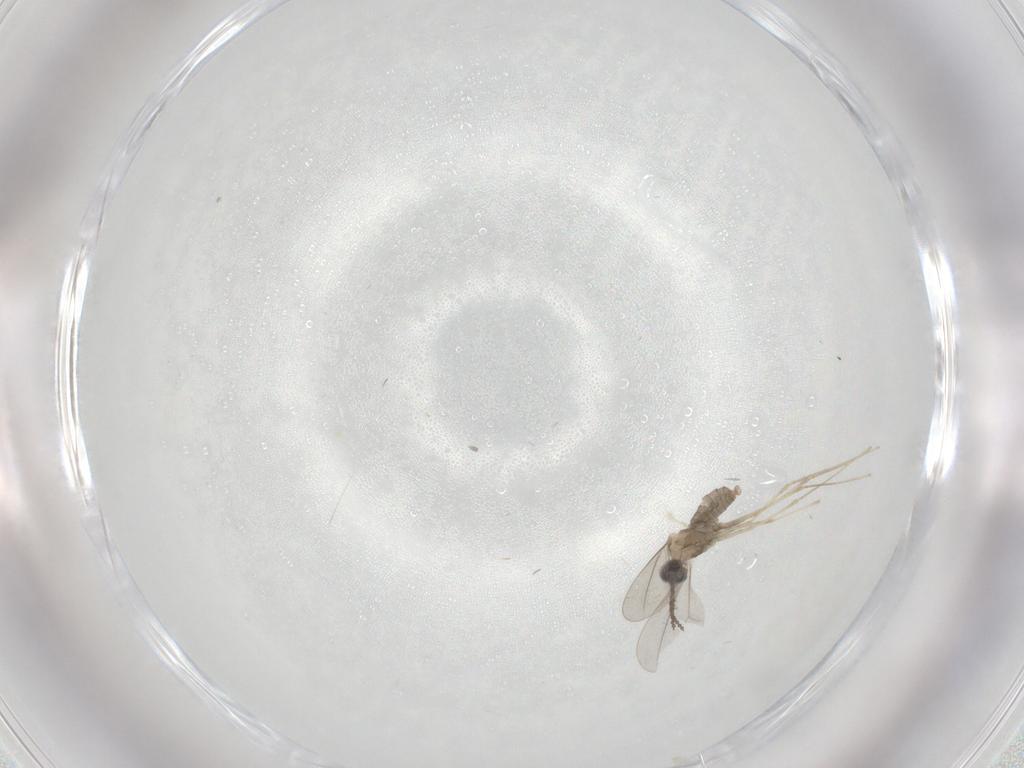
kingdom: Animalia
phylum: Arthropoda
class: Insecta
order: Diptera
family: Cecidomyiidae
